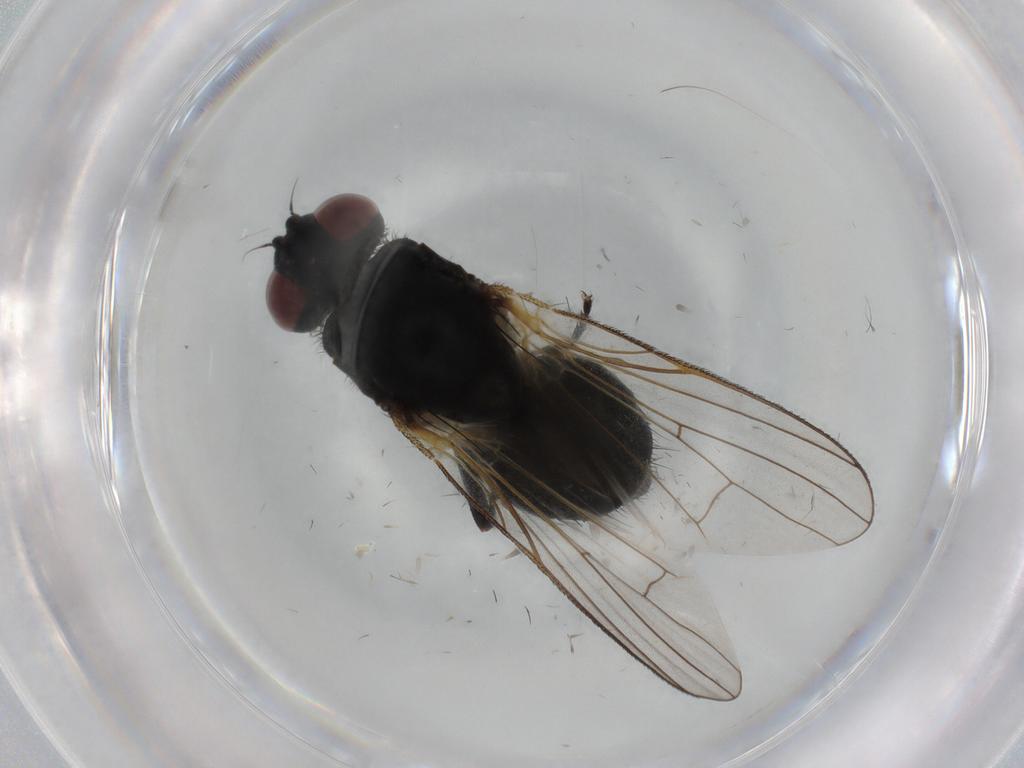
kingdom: Animalia
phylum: Arthropoda
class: Insecta
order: Diptera
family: Muscidae
